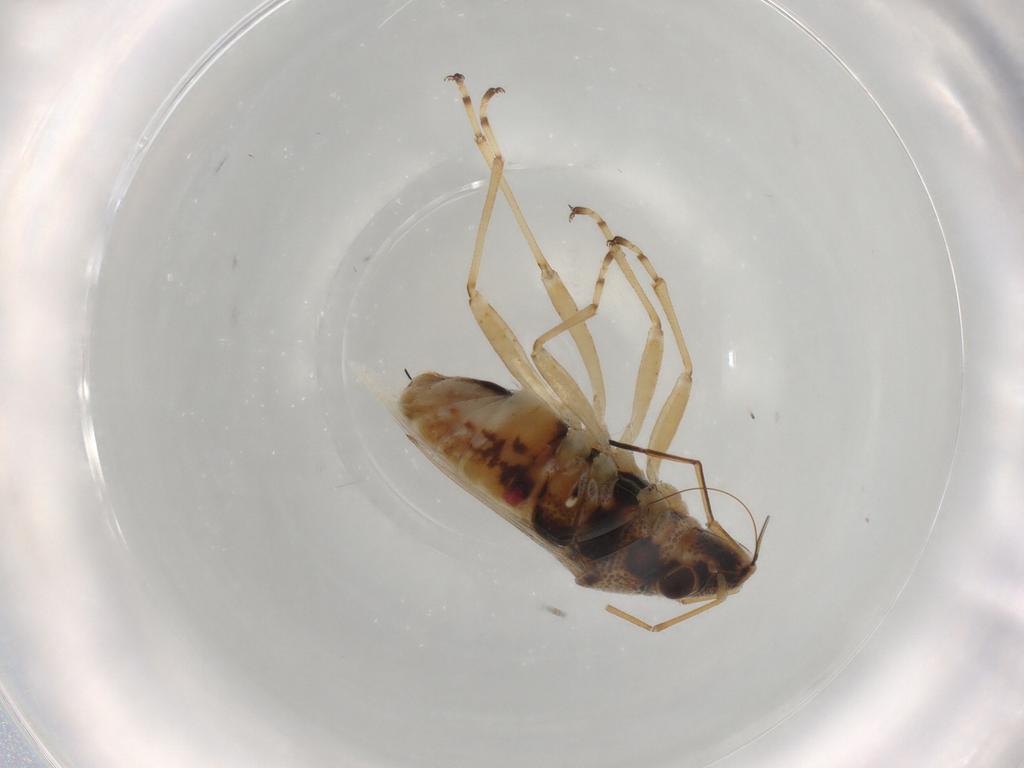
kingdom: Animalia
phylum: Arthropoda
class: Insecta
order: Hemiptera
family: Lygaeidae
